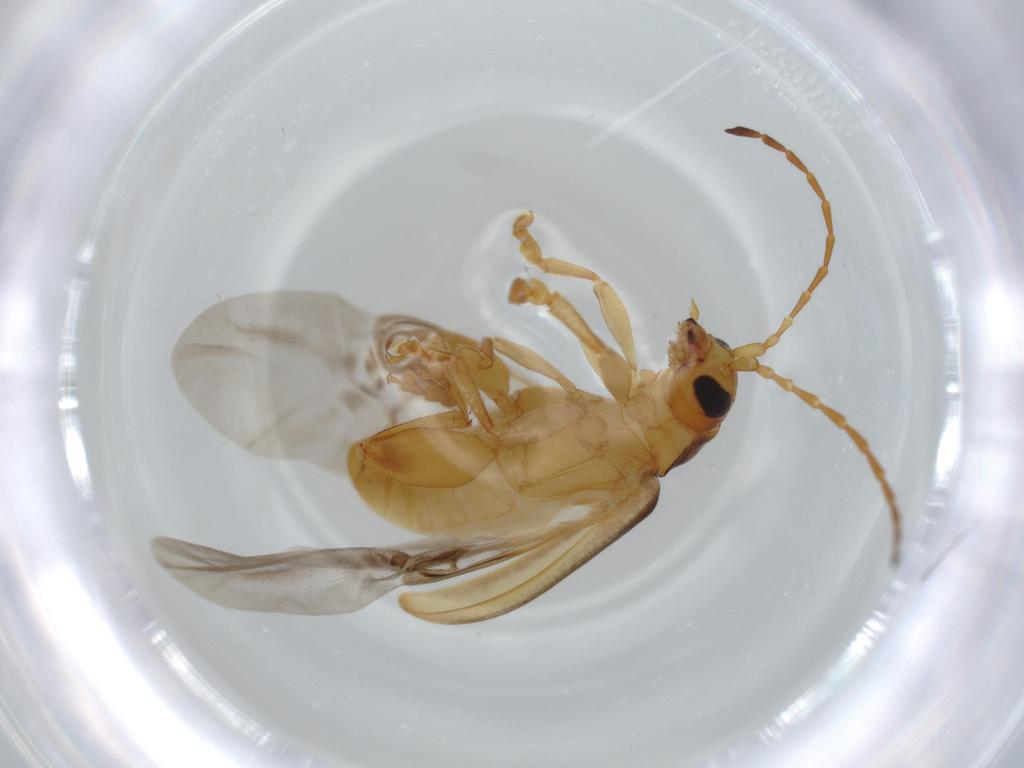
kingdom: Animalia
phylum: Arthropoda
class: Insecta
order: Coleoptera
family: Chrysomelidae
